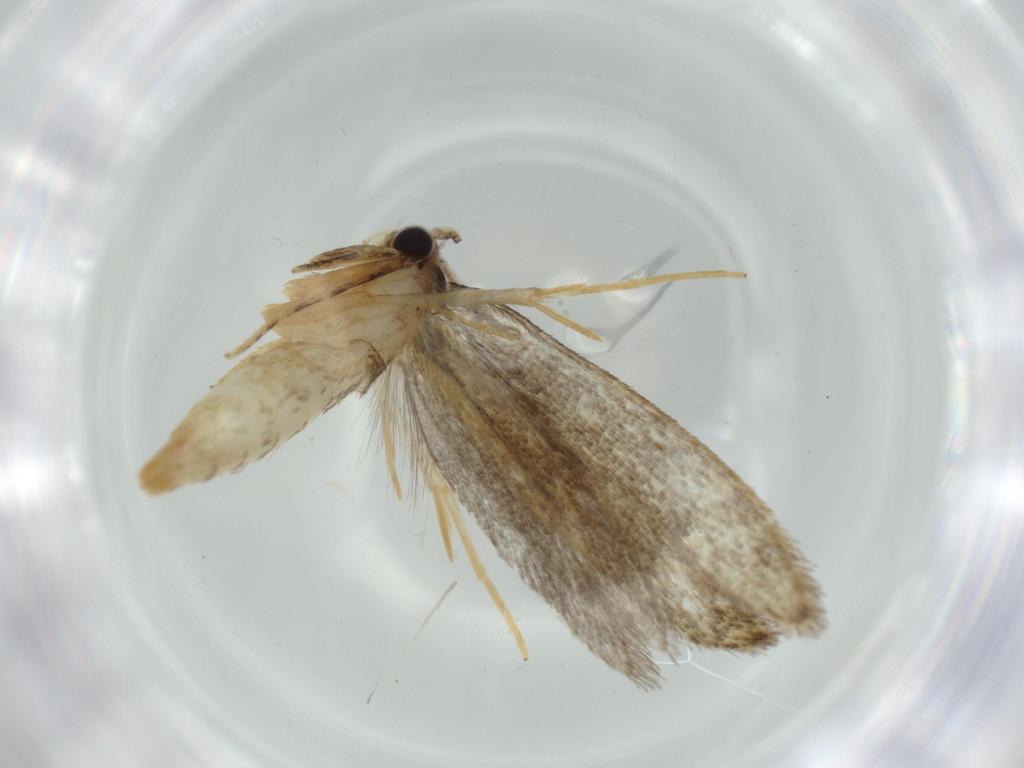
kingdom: Animalia
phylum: Arthropoda
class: Insecta
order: Lepidoptera
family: Tineidae
